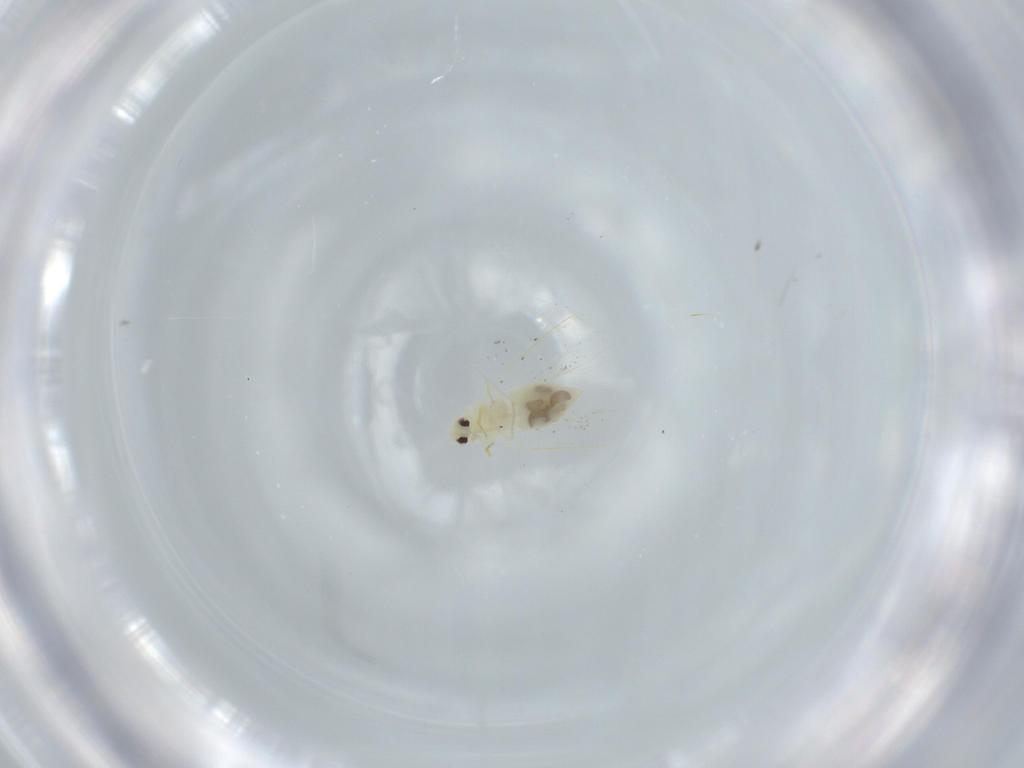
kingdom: Animalia
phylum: Arthropoda
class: Insecta
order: Hemiptera
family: Aleyrodidae
